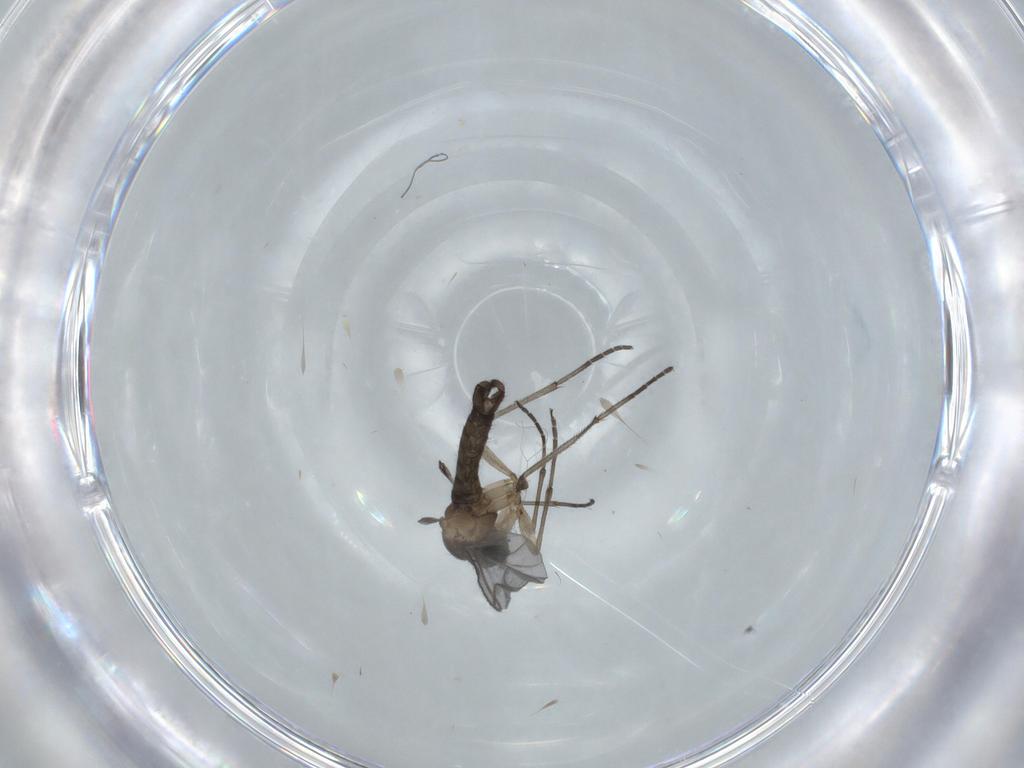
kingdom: Animalia
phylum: Arthropoda
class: Insecta
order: Diptera
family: Sciaridae
